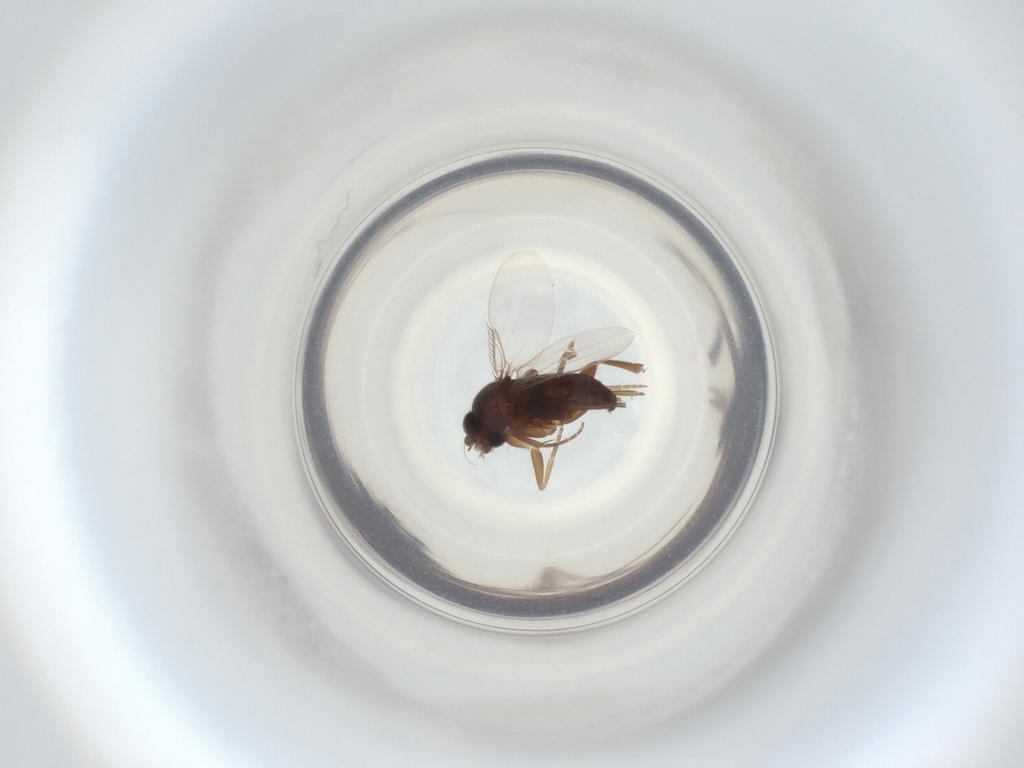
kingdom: Animalia
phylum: Arthropoda
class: Insecta
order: Diptera
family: Phoridae
